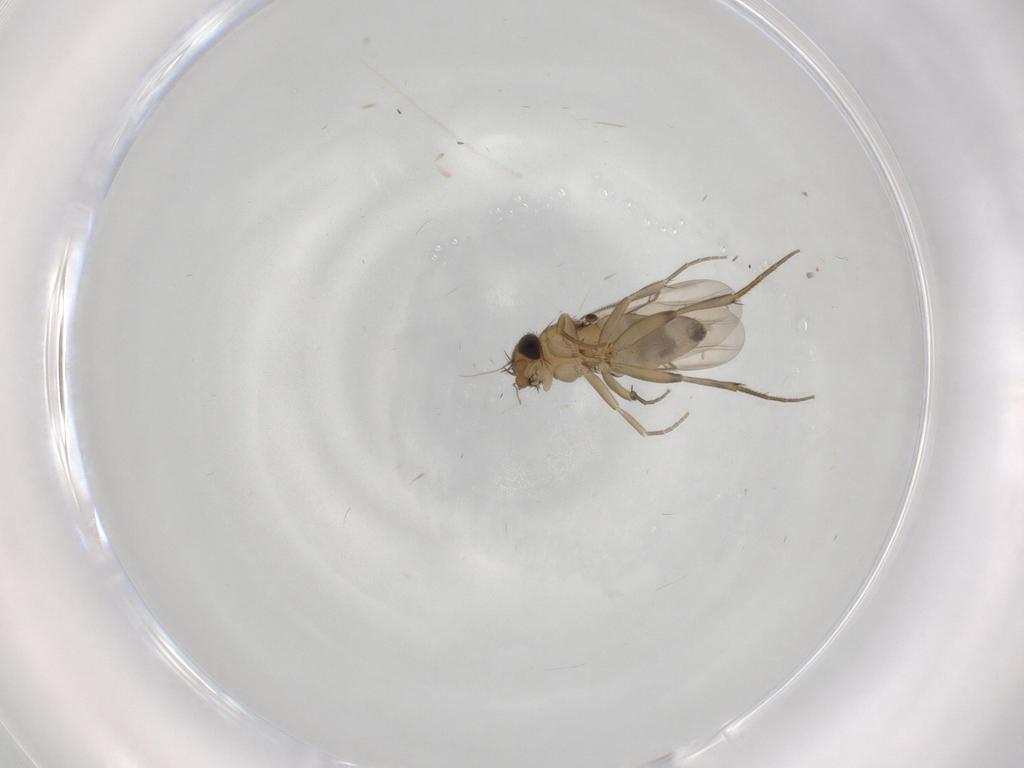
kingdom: Animalia
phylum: Arthropoda
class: Insecta
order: Diptera
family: Phoridae
